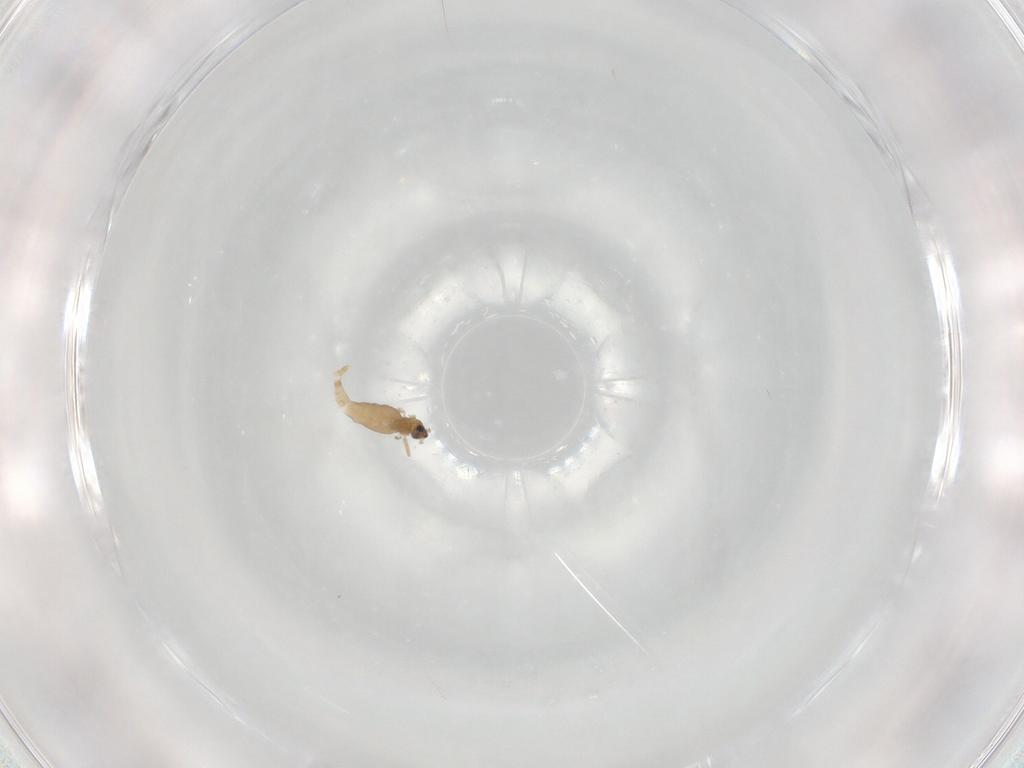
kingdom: Animalia
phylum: Arthropoda
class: Insecta
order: Diptera
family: Cecidomyiidae
